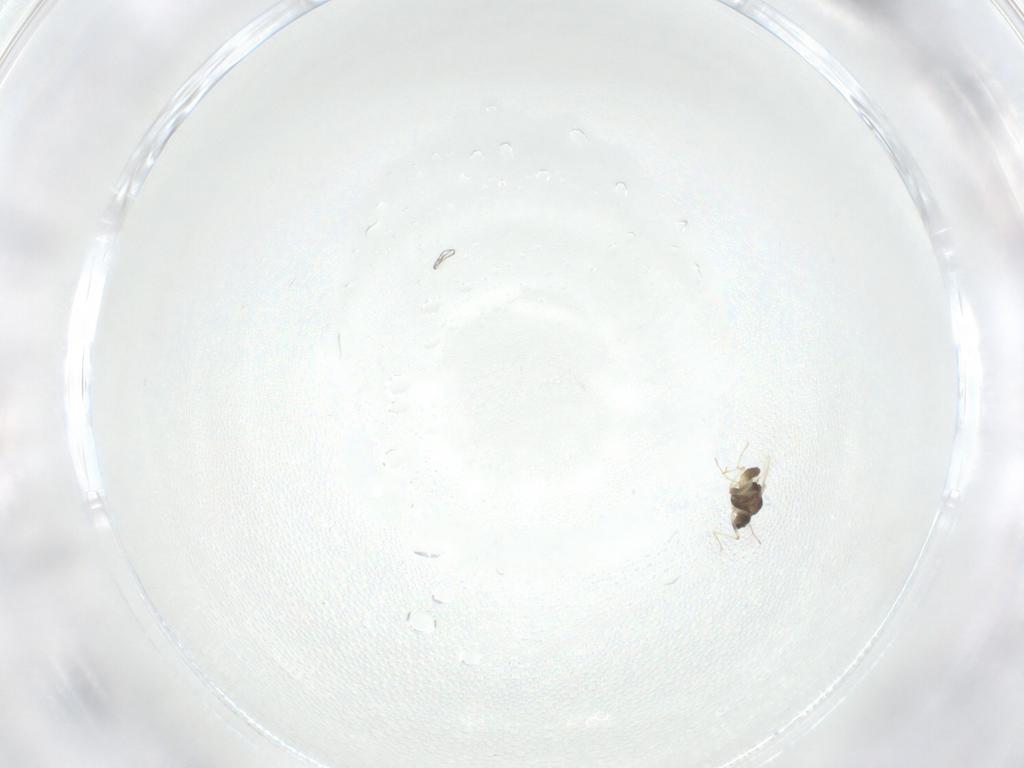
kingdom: Animalia
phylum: Arthropoda
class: Insecta
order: Diptera
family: Chironomidae
